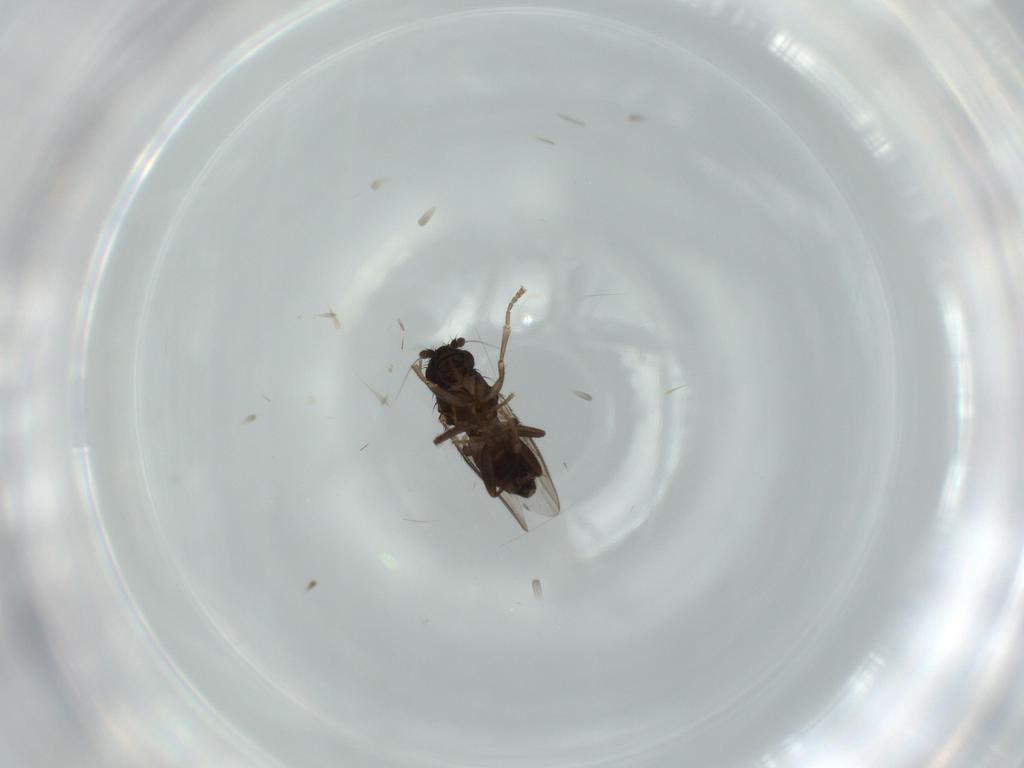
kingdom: Animalia
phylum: Arthropoda
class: Insecta
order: Diptera
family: Sphaeroceridae
